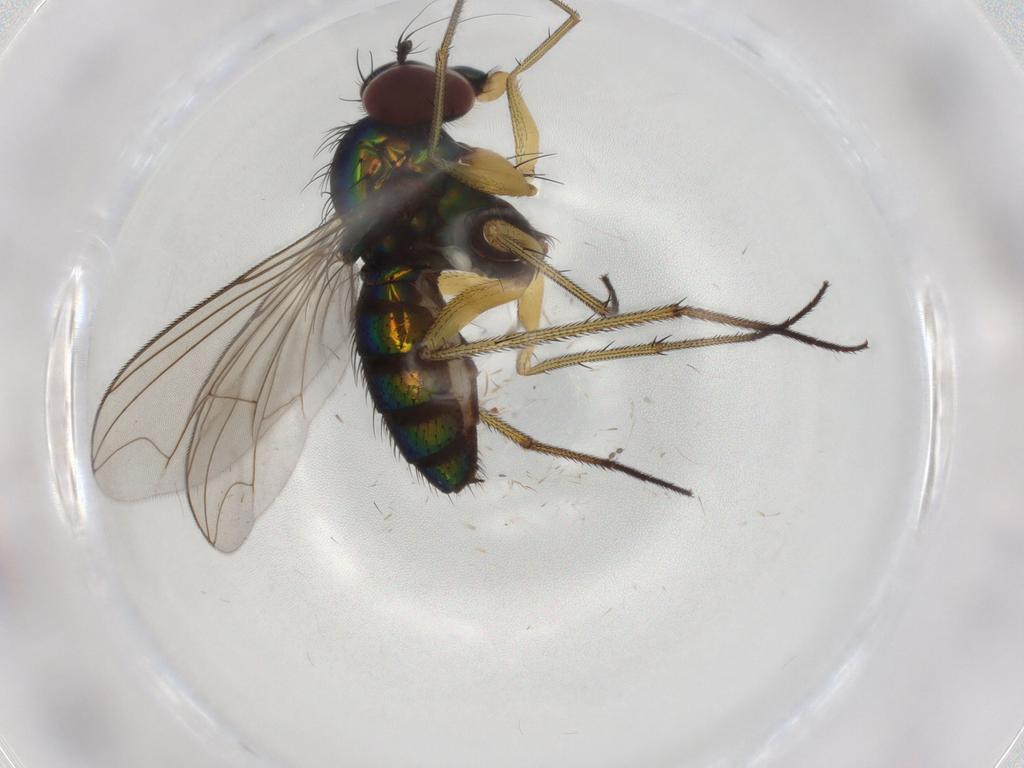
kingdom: Animalia
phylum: Arthropoda
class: Insecta
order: Diptera
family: Dolichopodidae
